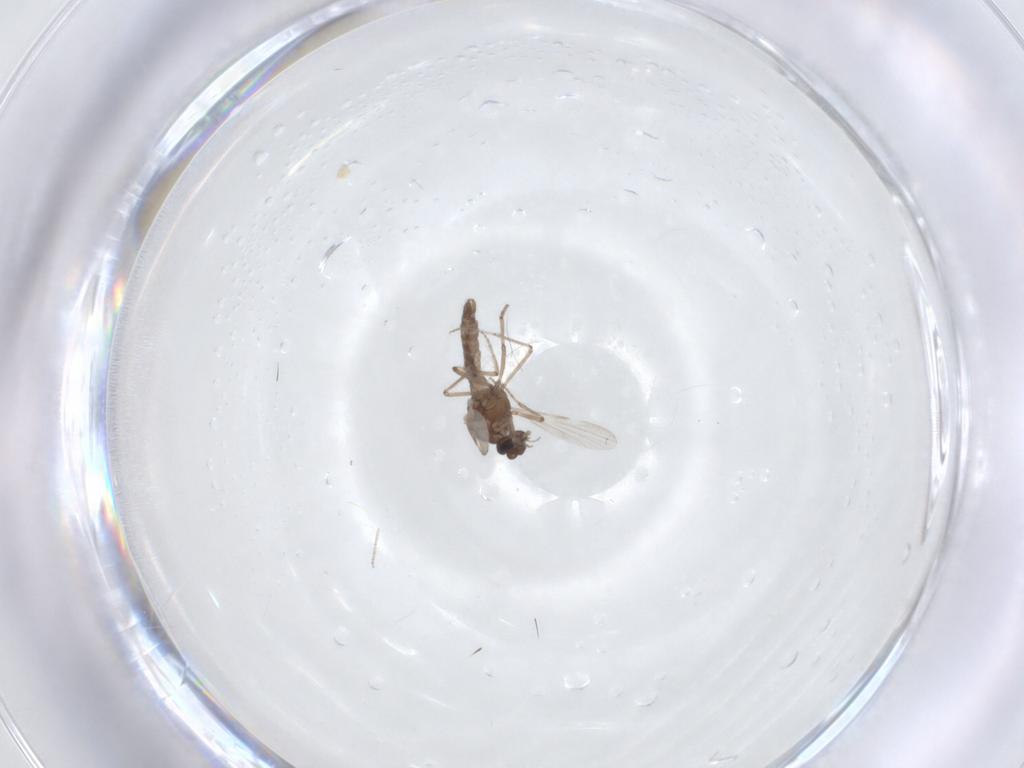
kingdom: Animalia
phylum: Arthropoda
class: Insecta
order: Diptera
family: Ceratopogonidae
